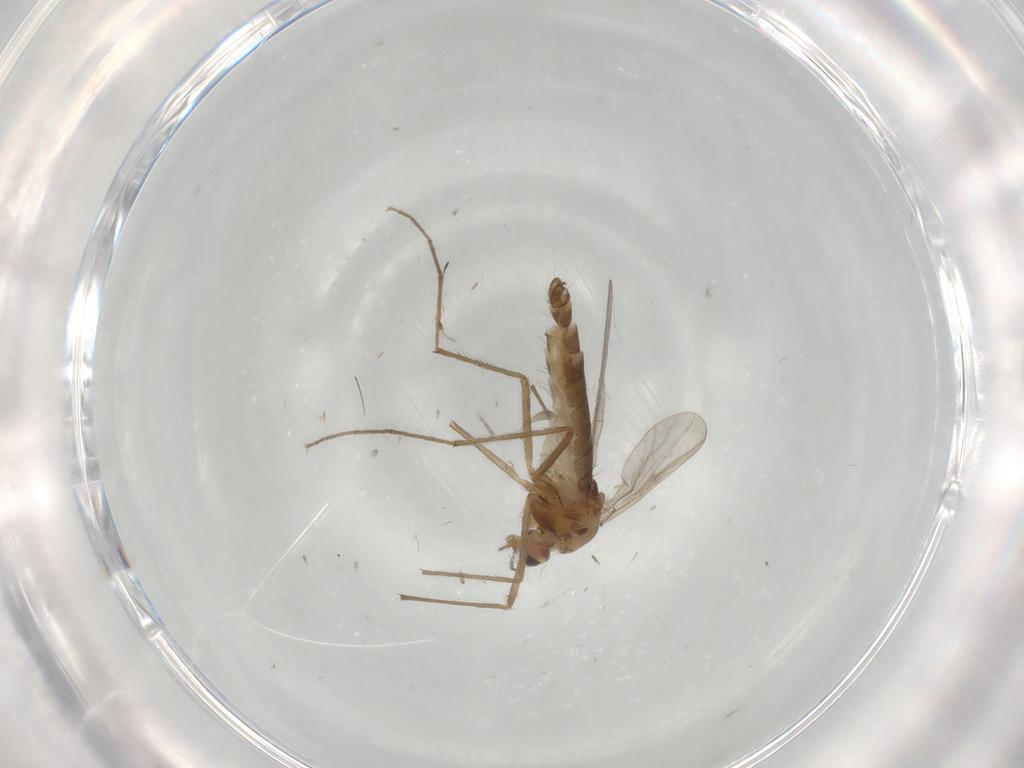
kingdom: Animalia
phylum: Arthropoda
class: Insecta
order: Diptera
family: Chironomidae
